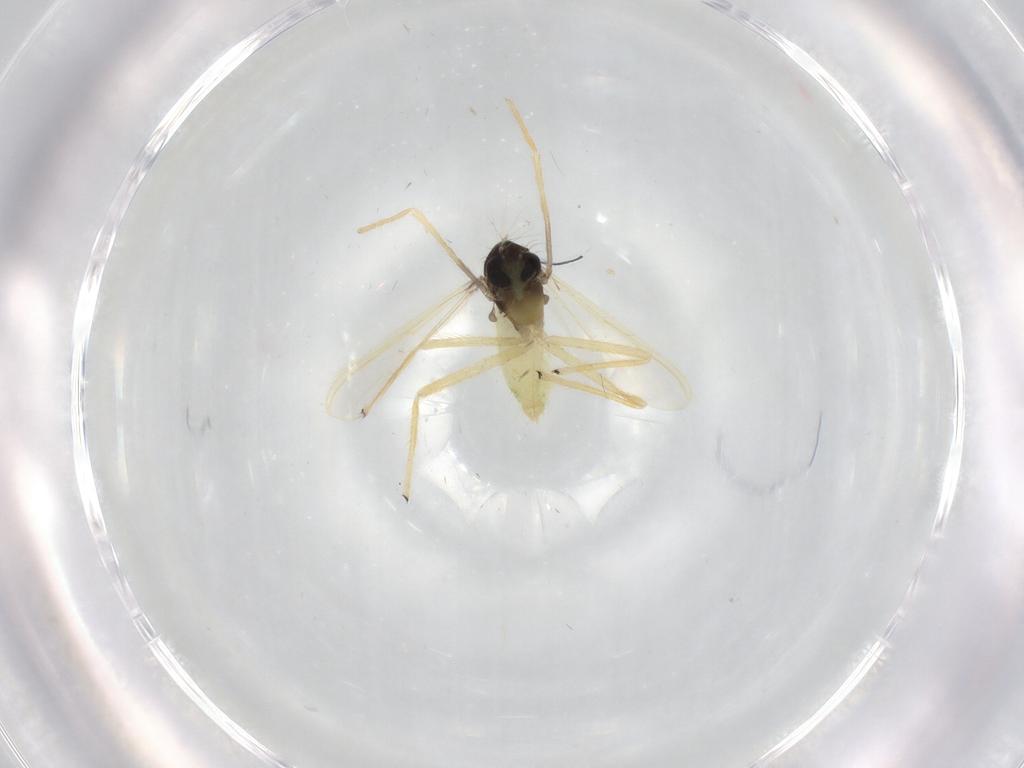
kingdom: Animalia
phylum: Arthropoda
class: Insecta
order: Diptera
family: Chironomidae
